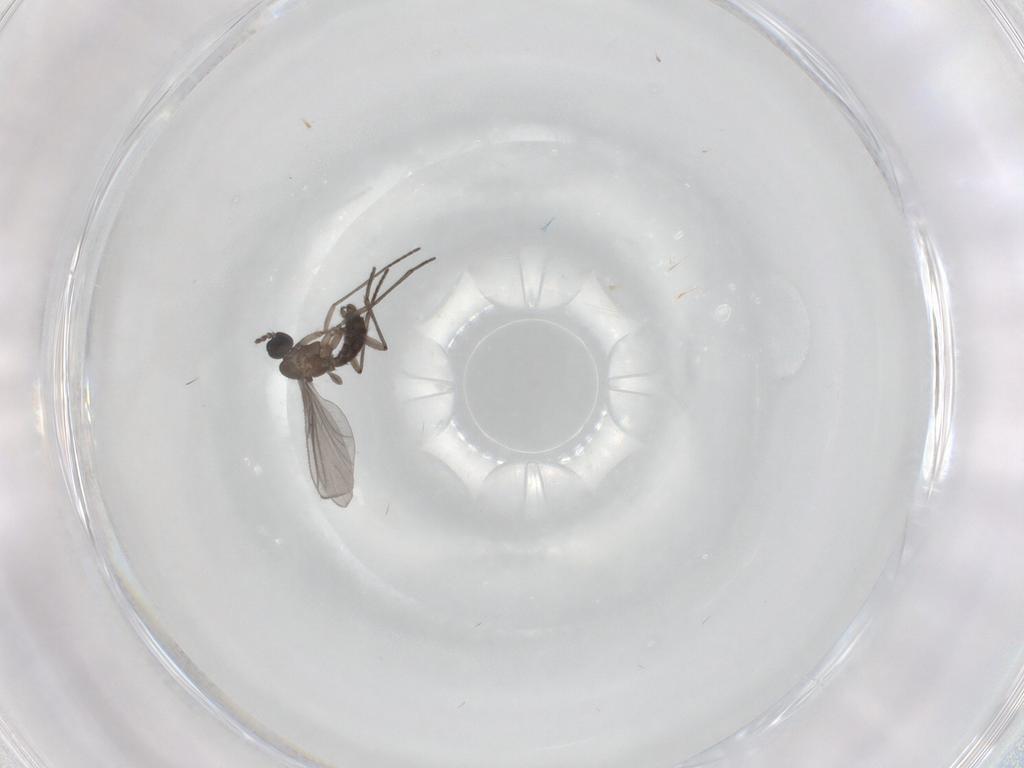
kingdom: Animalia
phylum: Arthropoda
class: Insecta
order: Diptera
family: Sciaridae
